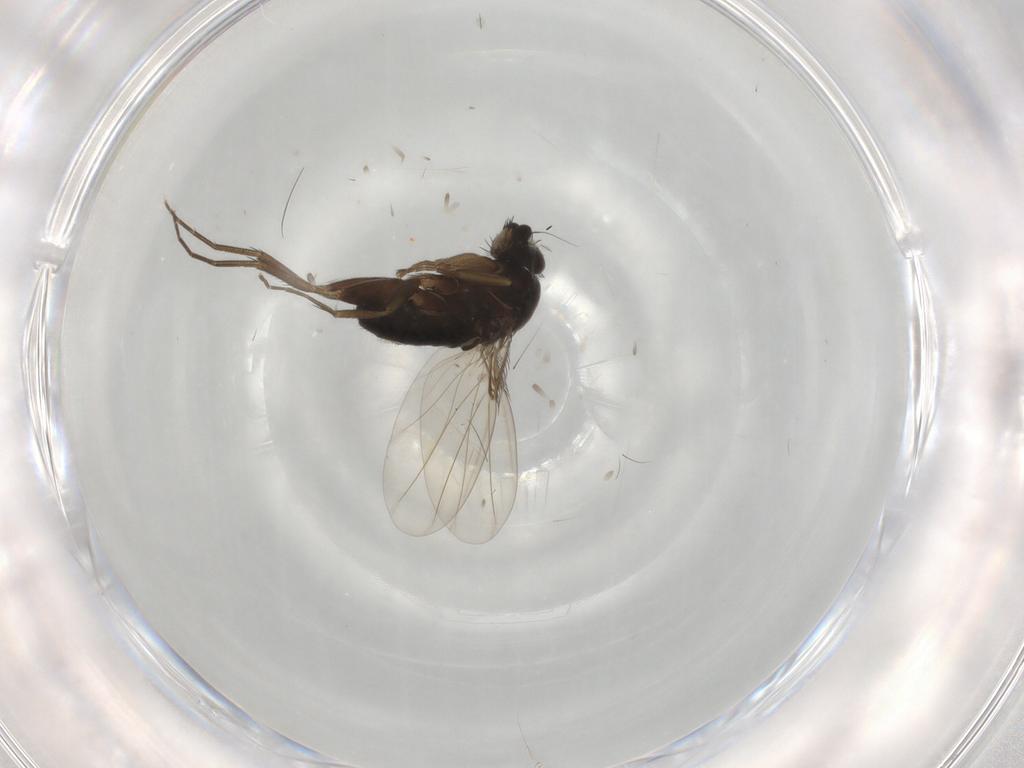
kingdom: Animalia
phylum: Arthropoda
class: Insecta
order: Diptera
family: Phoridae
